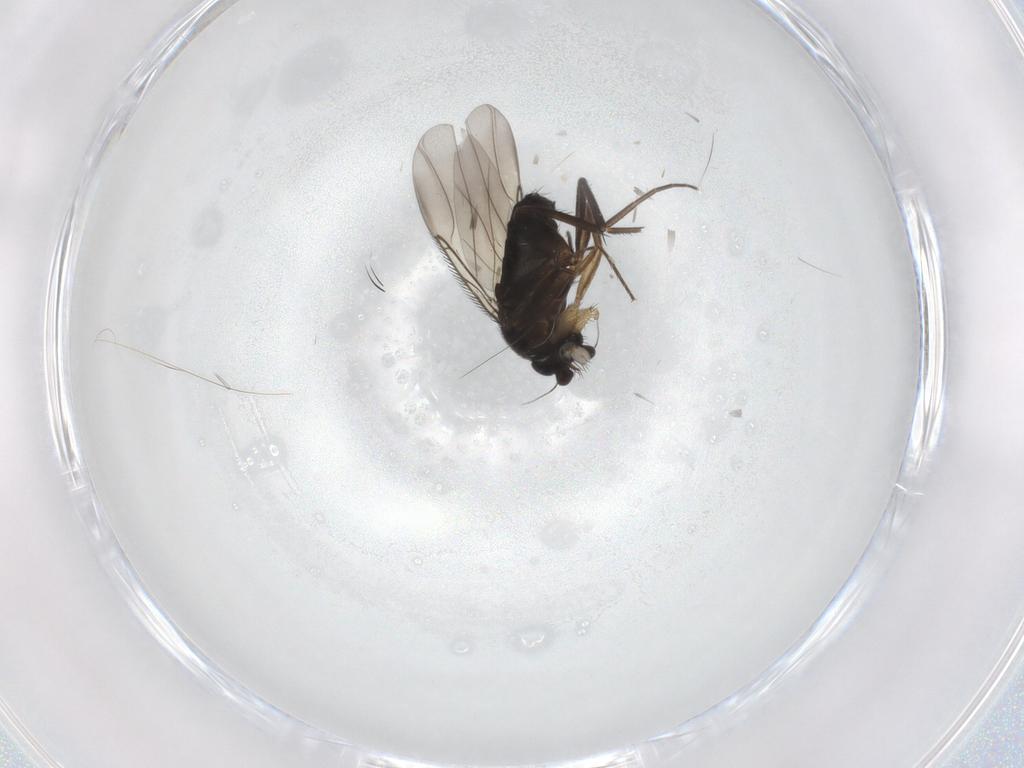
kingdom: Animalia
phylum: Arthropoda
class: Insecta
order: Diptera
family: Phoridae
